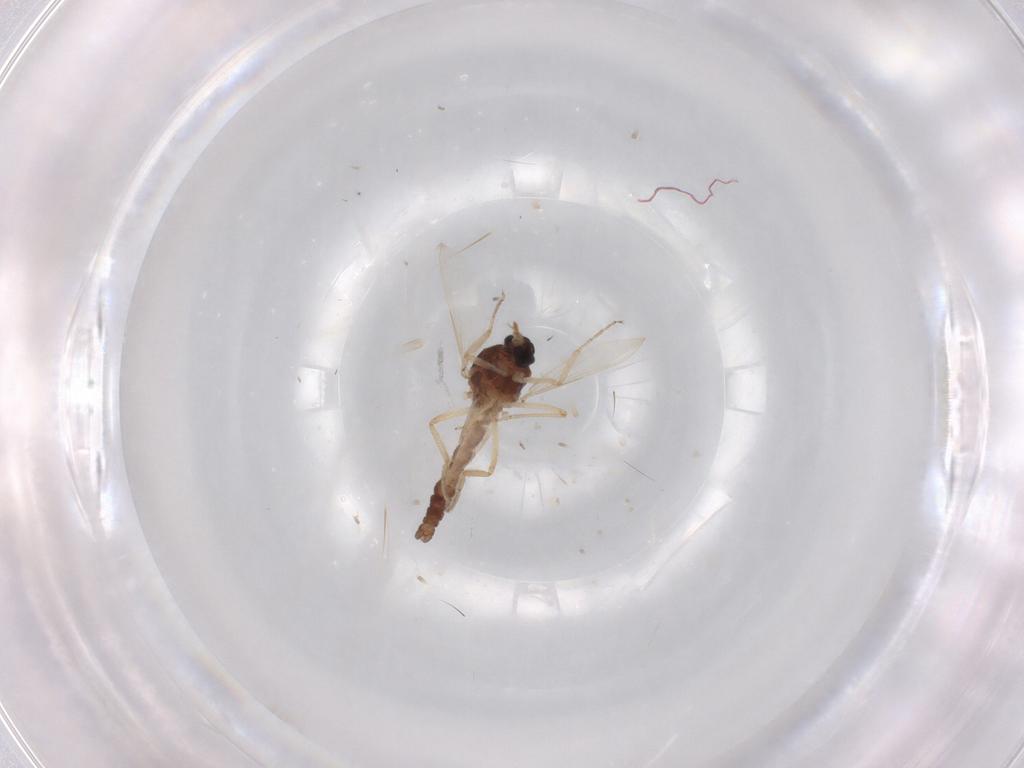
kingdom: Animalia
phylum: Arthropoda
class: Insecta
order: Diptera
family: Ceratopogonidae
